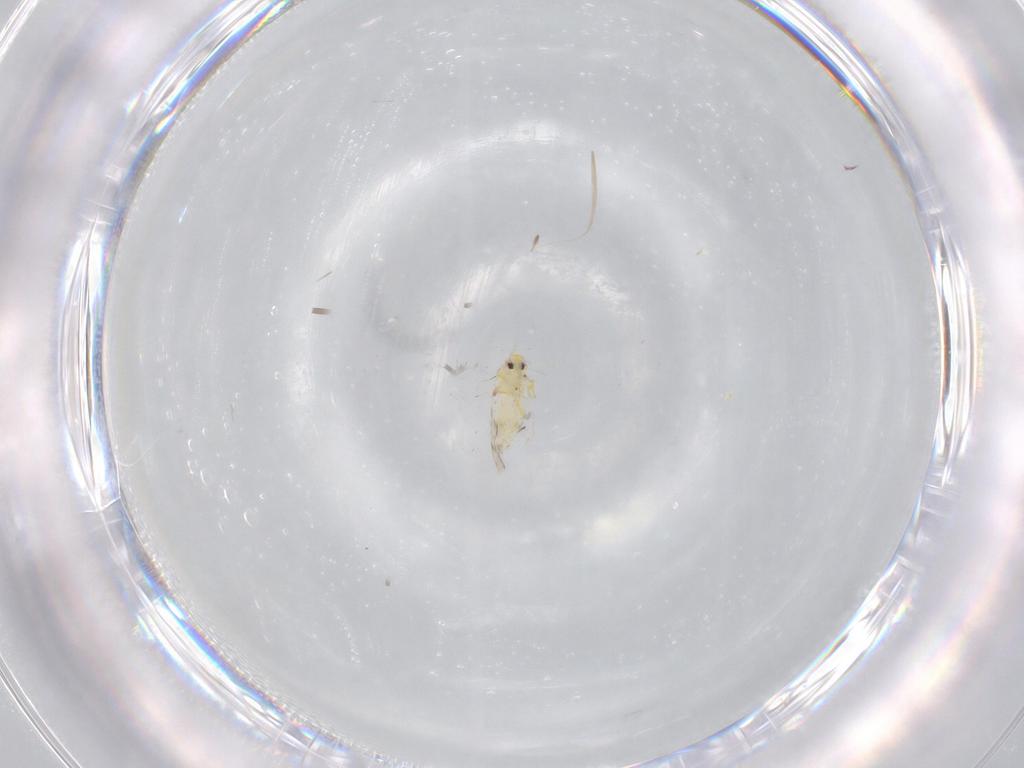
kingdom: Animalia
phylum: Arthropoda
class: Insecta
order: Hemiptera
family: Aleyrodidae
